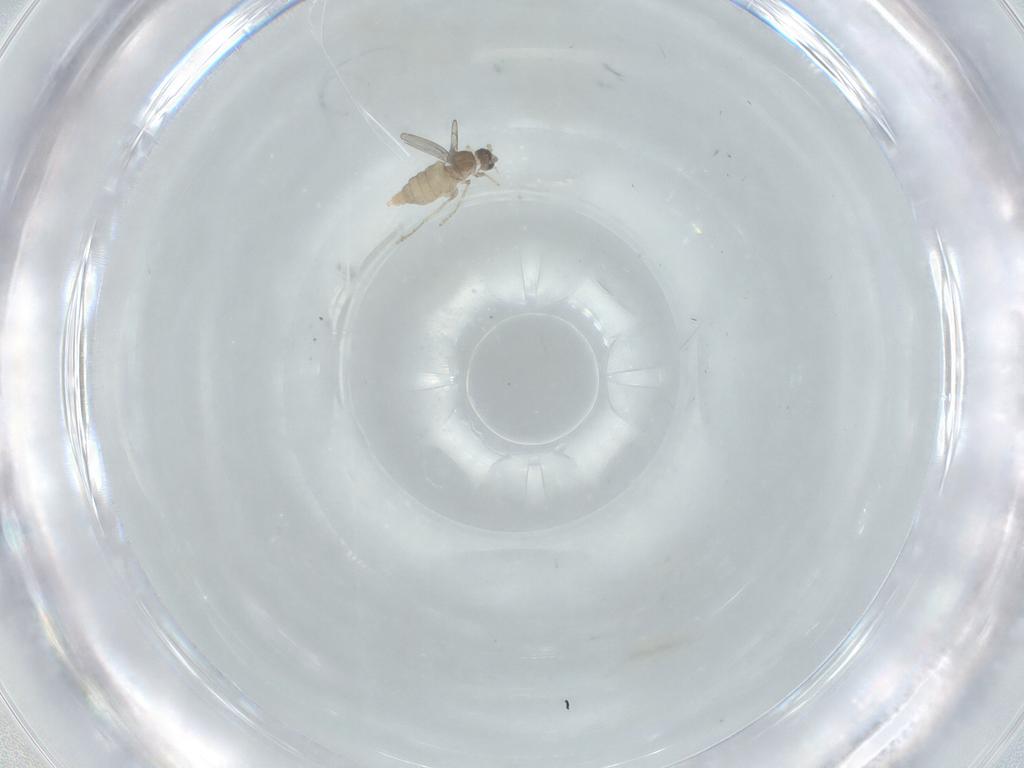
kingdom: Animalia
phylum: Arthropoda
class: Insecta
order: Diptera
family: Cecidomyiidae
